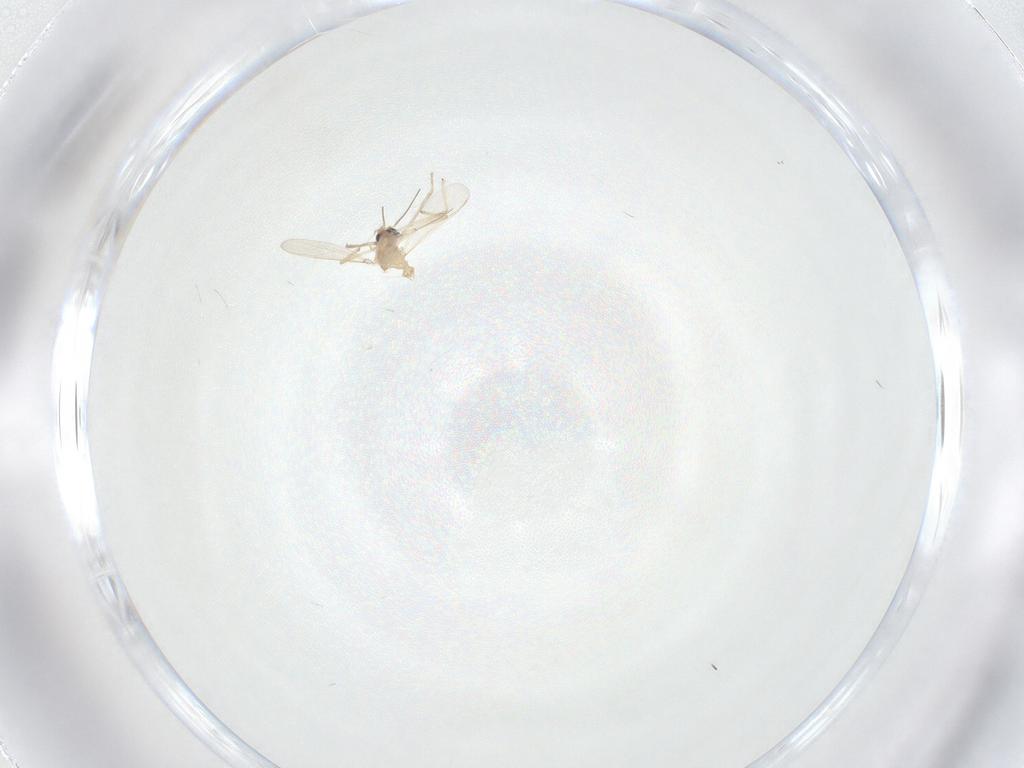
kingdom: Animalia
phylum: Arthropoda
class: Insecta
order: Diptera
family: Chironomidae
